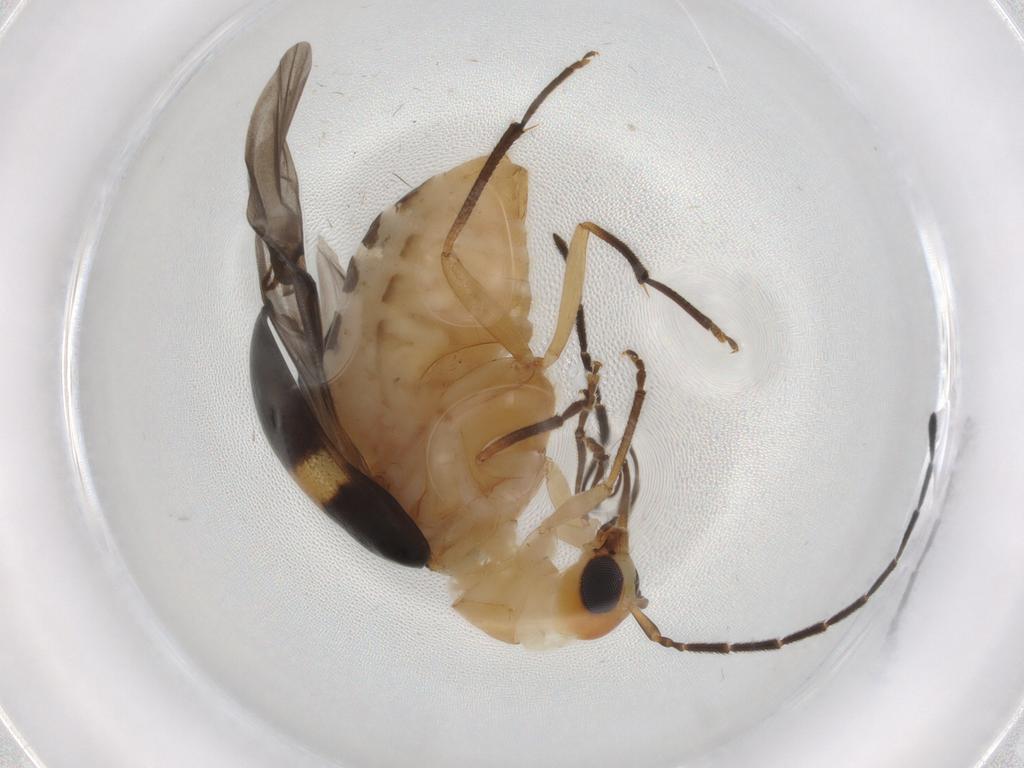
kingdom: Animalia
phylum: Arthropoda
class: Insecta
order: Coleoptera
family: Chrysomelidae
